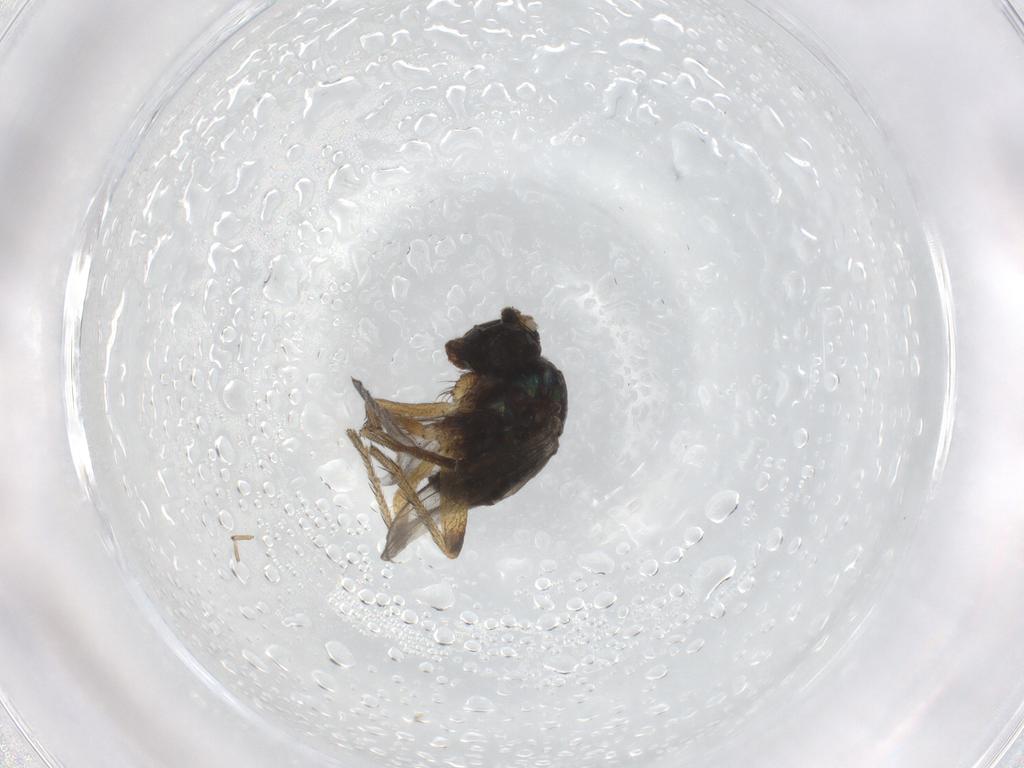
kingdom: Animalia
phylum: Arthropoda
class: Insecta
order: Diptera
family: Dolichopodidae
